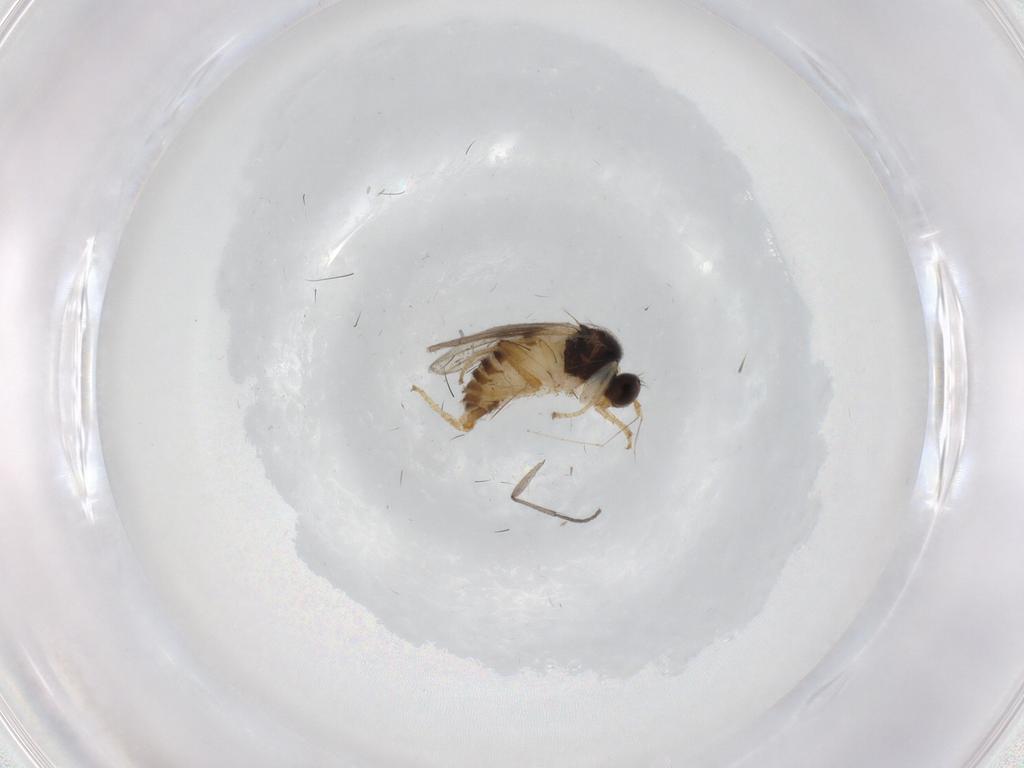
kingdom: Animalia
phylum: Arthropoda
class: Insecta
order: Diptera
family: Hybotidae
